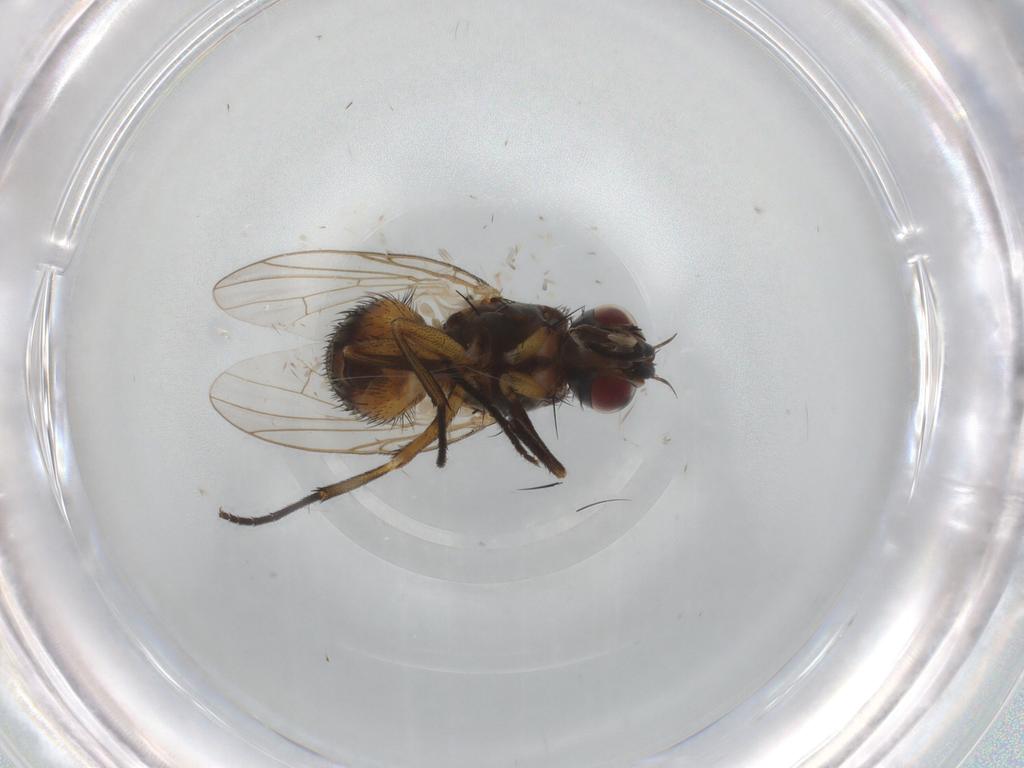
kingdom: Animalia
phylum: Arthropoda
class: Insecta
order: Diptera
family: Muscidae
